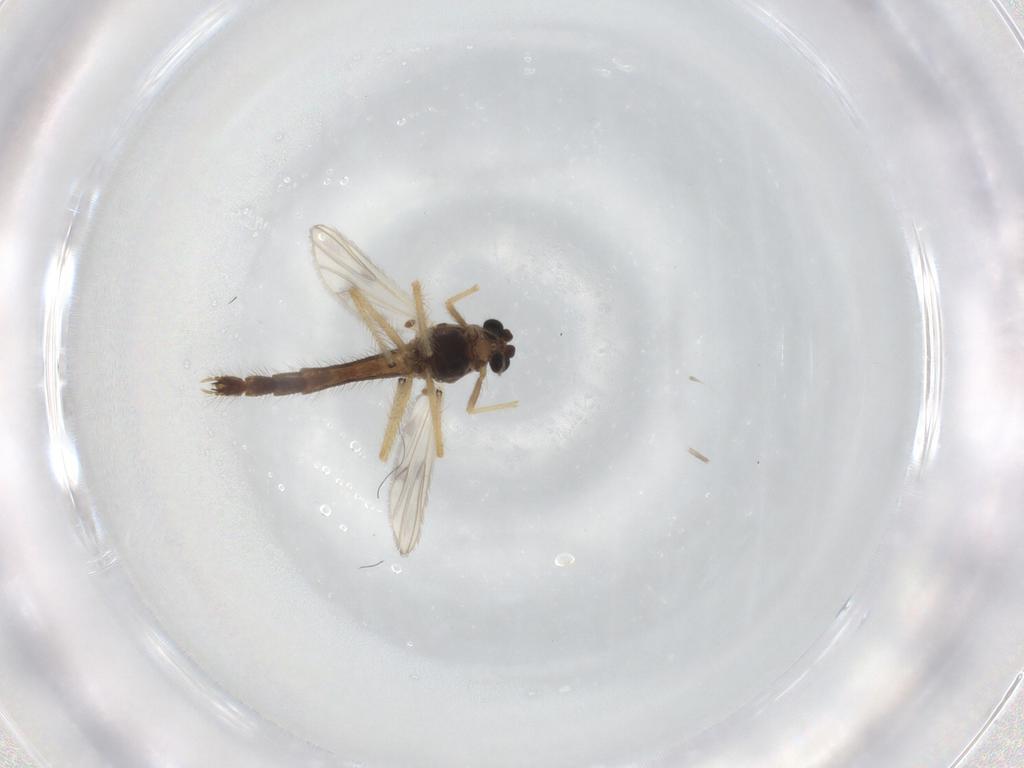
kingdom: Animalia
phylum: Arthropoda
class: Insecta
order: Diptera
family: Chironomidae
